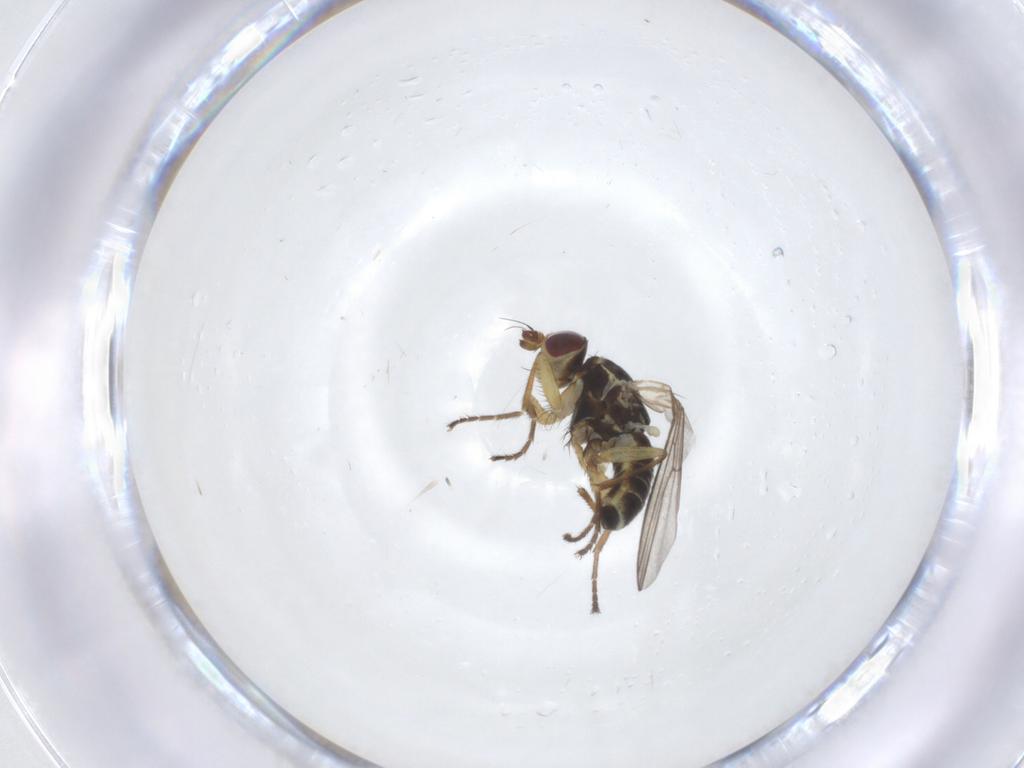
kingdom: Animalia
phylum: Arthropoda
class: Insecta
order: Diptera
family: Agromyzidae
